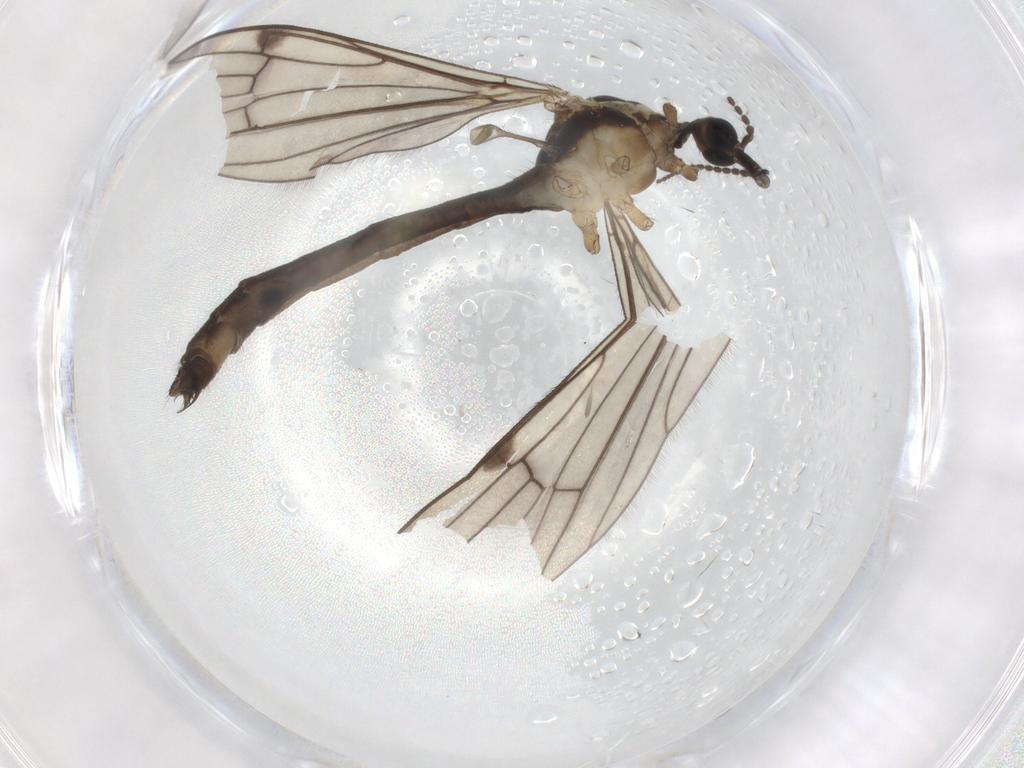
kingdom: Animalia
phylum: Arthropoda
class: Insecta
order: Diptera
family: Limoniidae
